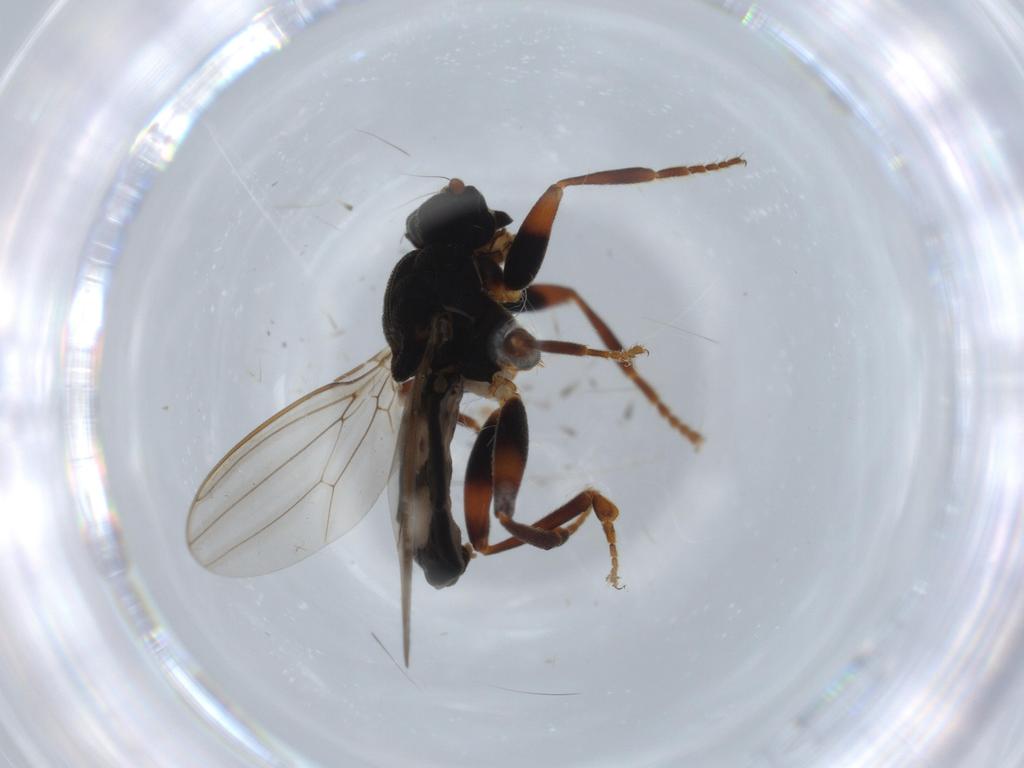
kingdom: Animalia
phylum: Arthropoda
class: Insecta
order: Diptera
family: Sphaeroceridae
